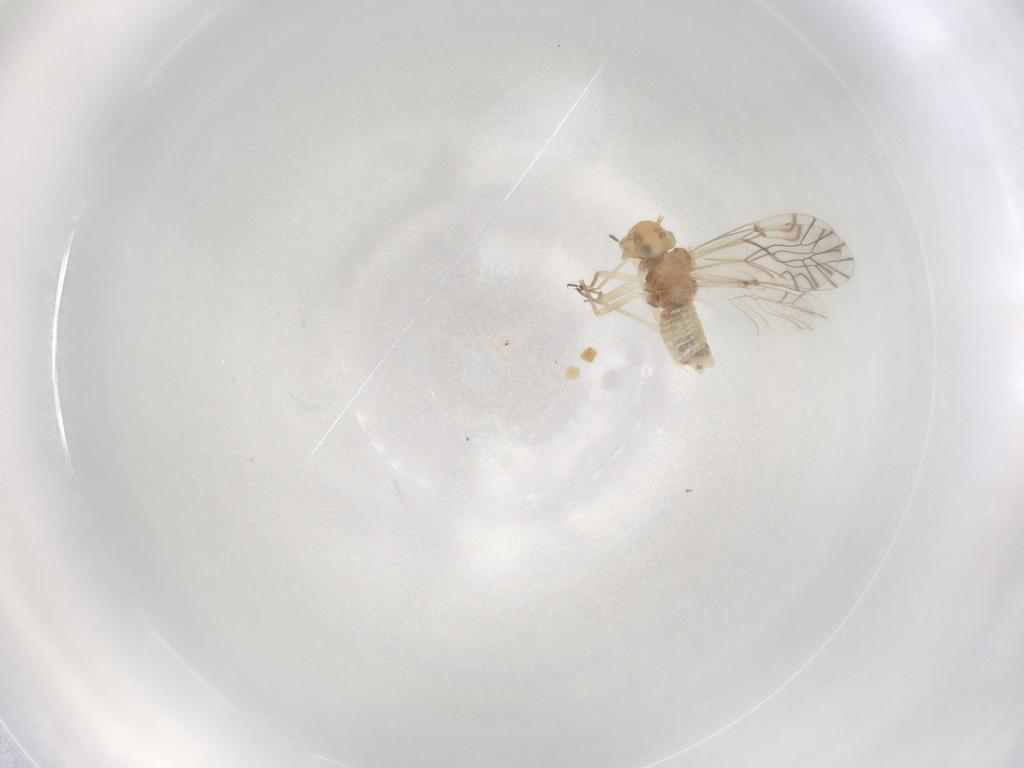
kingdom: Animalia
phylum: Arthropoda
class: Insecta
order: Psocodea
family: Lachesillidae
